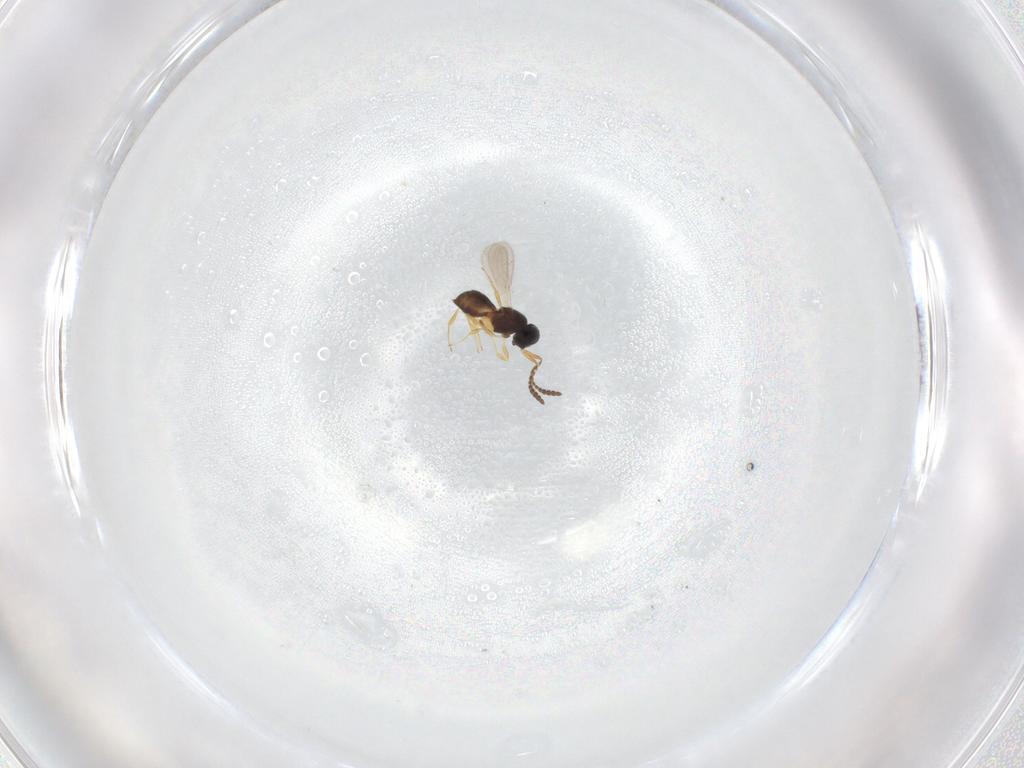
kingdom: Animalia
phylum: Arthropoda
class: Insecta
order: Hymenoptera
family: Scelionidae
